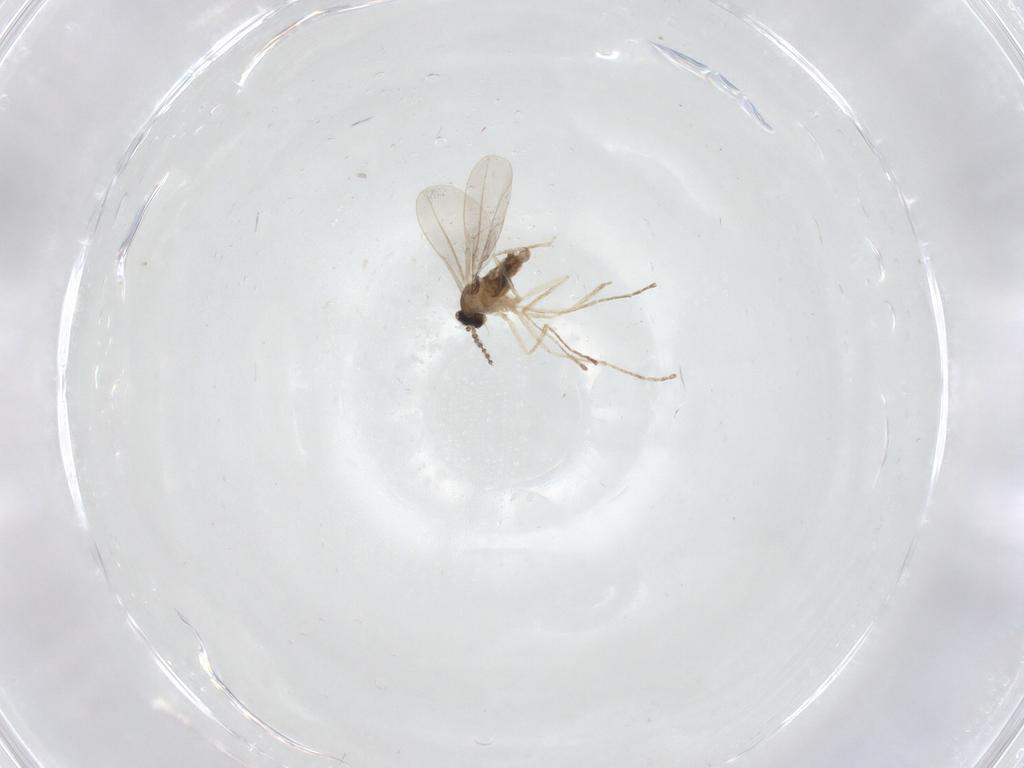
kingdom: Animalia
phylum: Arthropoda
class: Insecta
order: Diptera
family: Cecidomyiidae
